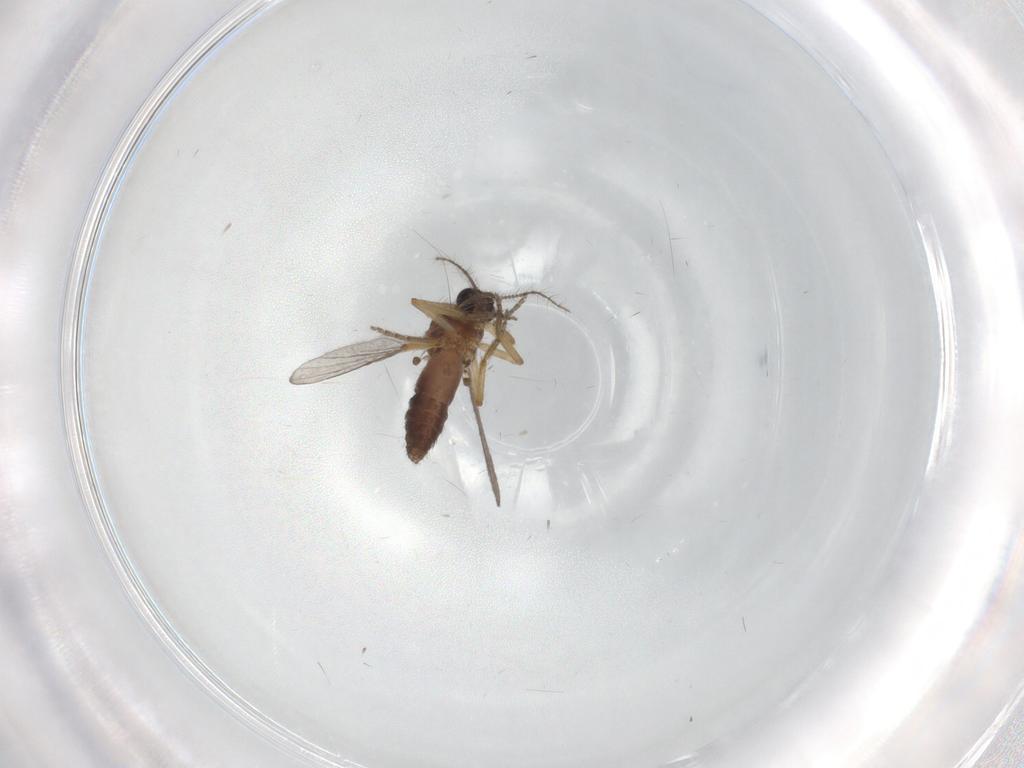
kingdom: Animalia
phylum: Arthropoda
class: Insecta
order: Diptera
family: Ceratopogonidae
